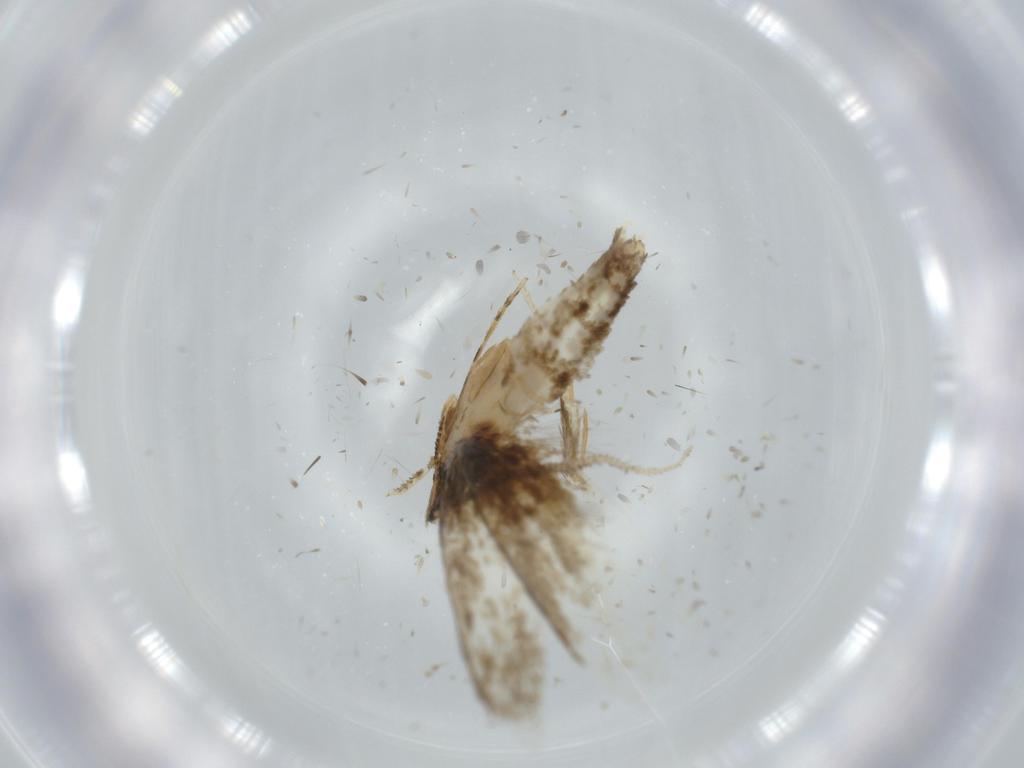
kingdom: Animalia
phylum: Arthropoda
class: Insecta
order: Lepidoptera
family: Tineidae
